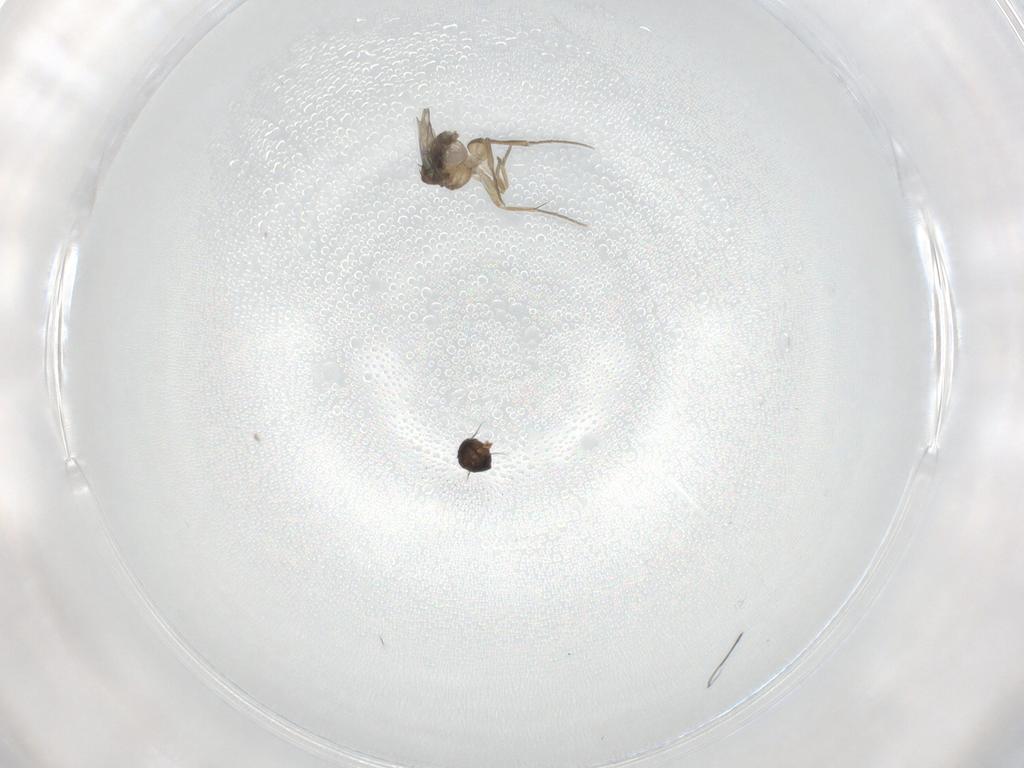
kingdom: Animalia
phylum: Arthropoda
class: Insecta
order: Diptera
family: Phoridae
